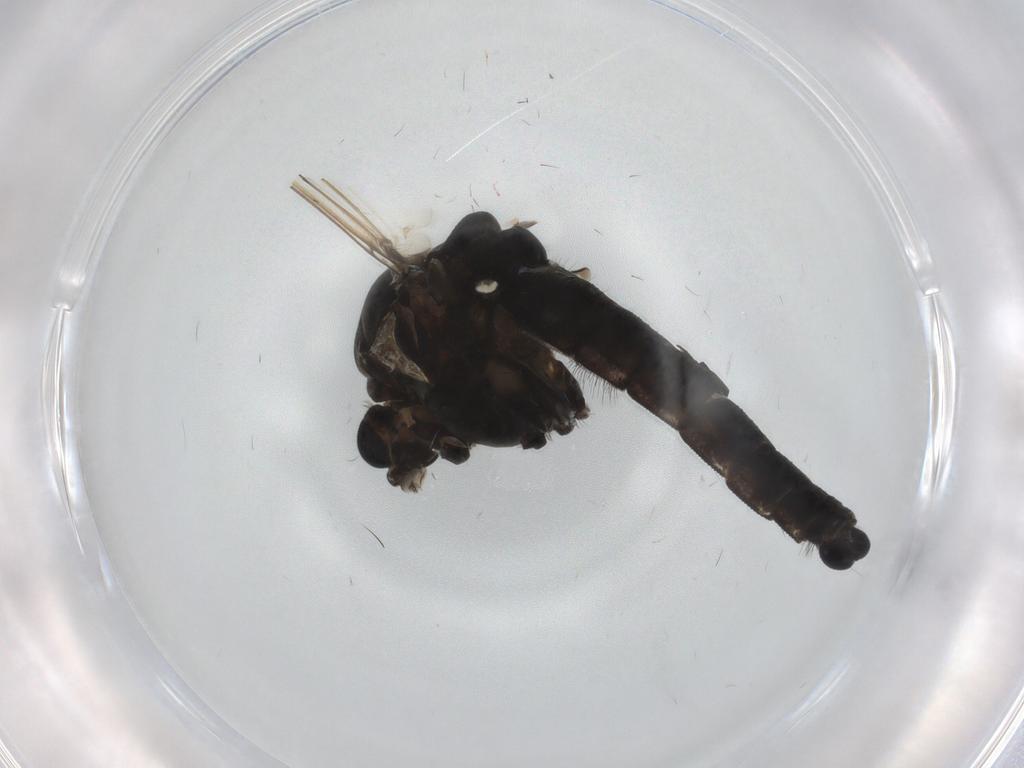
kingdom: Animalia
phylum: Arthropoda
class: Insecta
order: Diptera
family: Chironomidae
